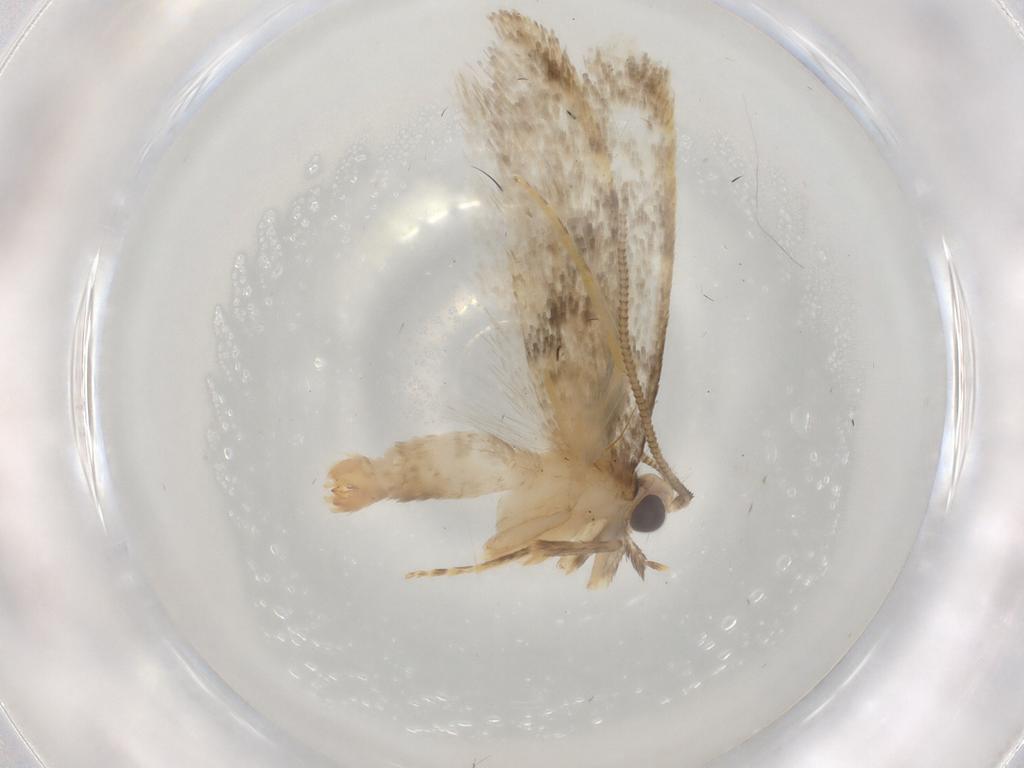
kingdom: Animalia
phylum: Arthropoda
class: Insecta
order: Lepidoptera
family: Tineidae
